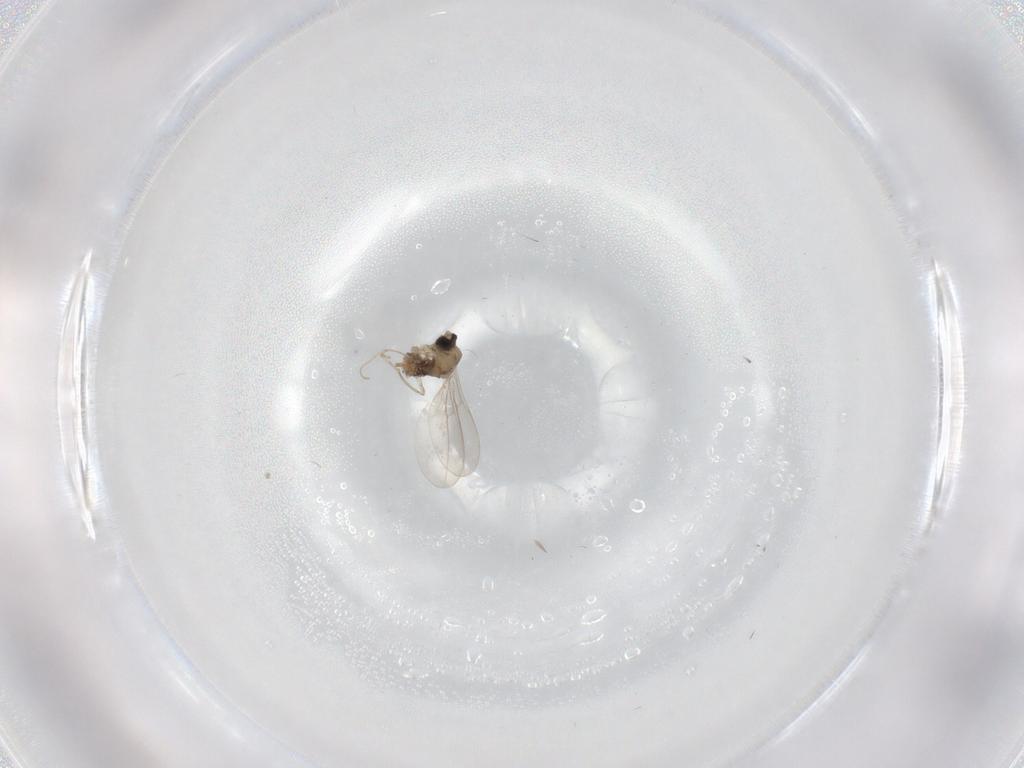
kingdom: Animalia
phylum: Arthropoda
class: Insecta
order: Diptera
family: Cecidomyiidae
